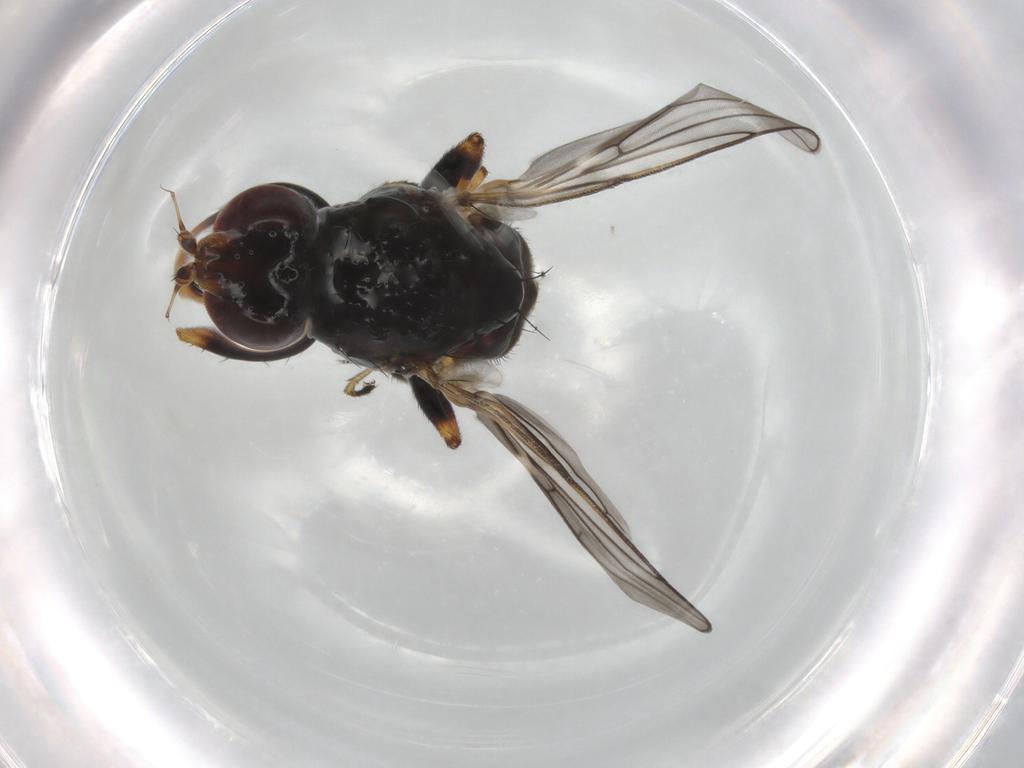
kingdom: Animalia
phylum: Arthropoda
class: Insecta
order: Diptera
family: Chloropidae
